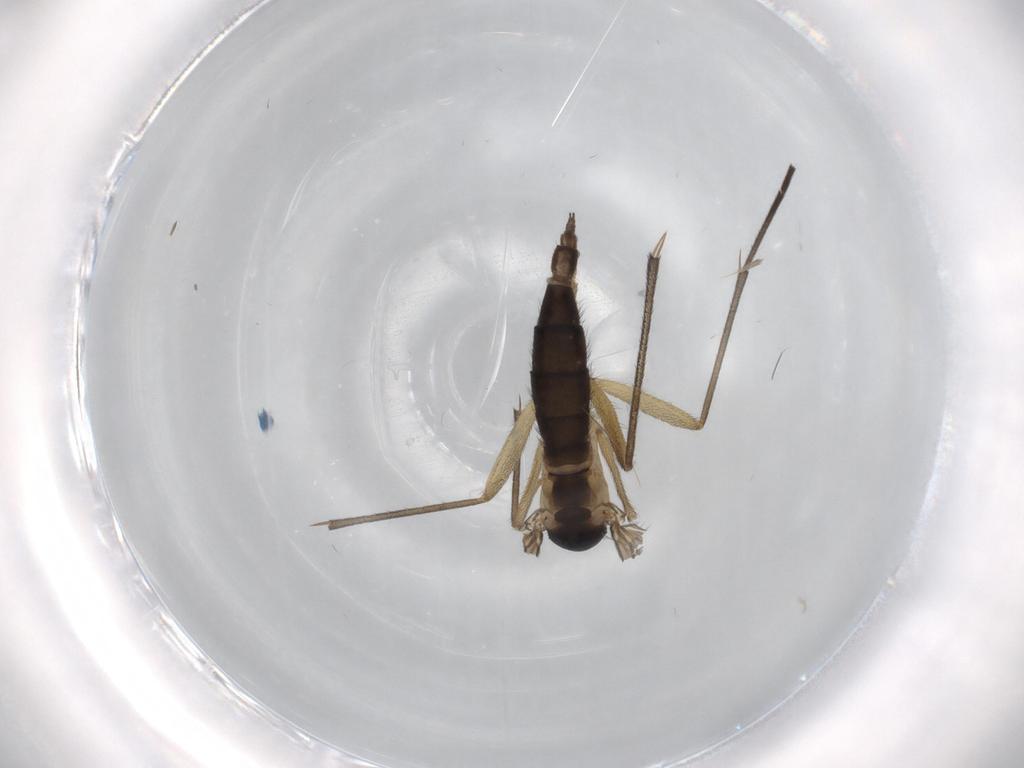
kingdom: Animalia
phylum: Arthropoda
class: Insecta
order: Diptera
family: Sciaridae
